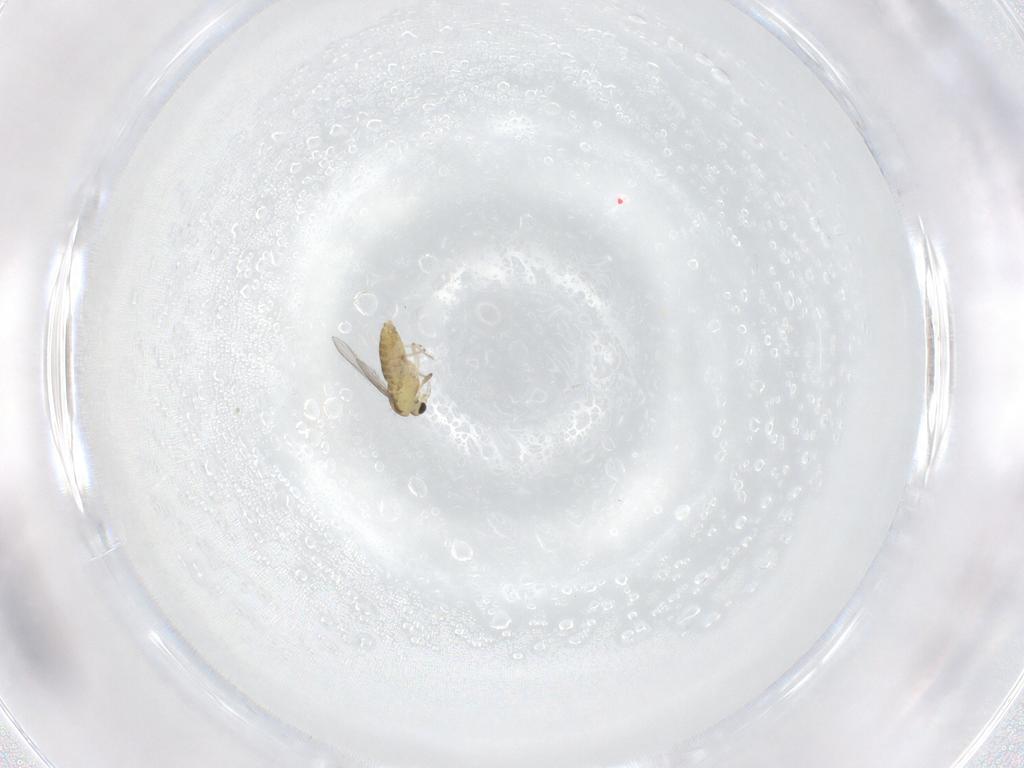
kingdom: Animalia
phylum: Arthropoda
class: Insecta
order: Diptera
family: Chironomidae
